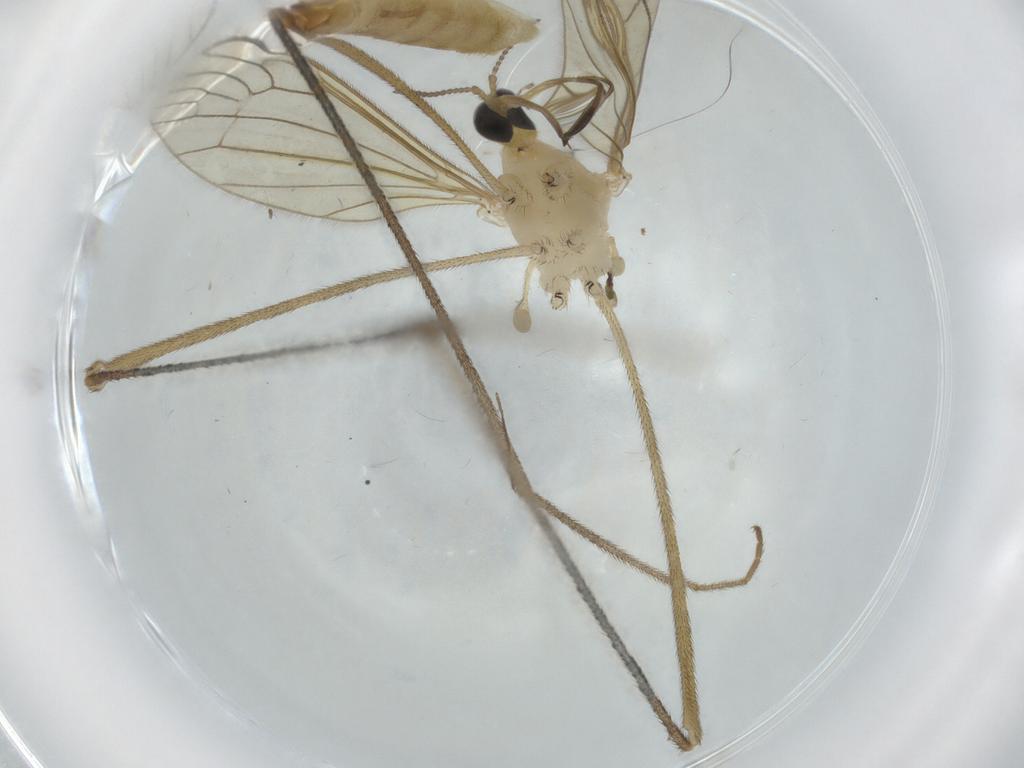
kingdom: Animalia
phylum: Arthropoda
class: Insecta
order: Diptera
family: Limoniidae
